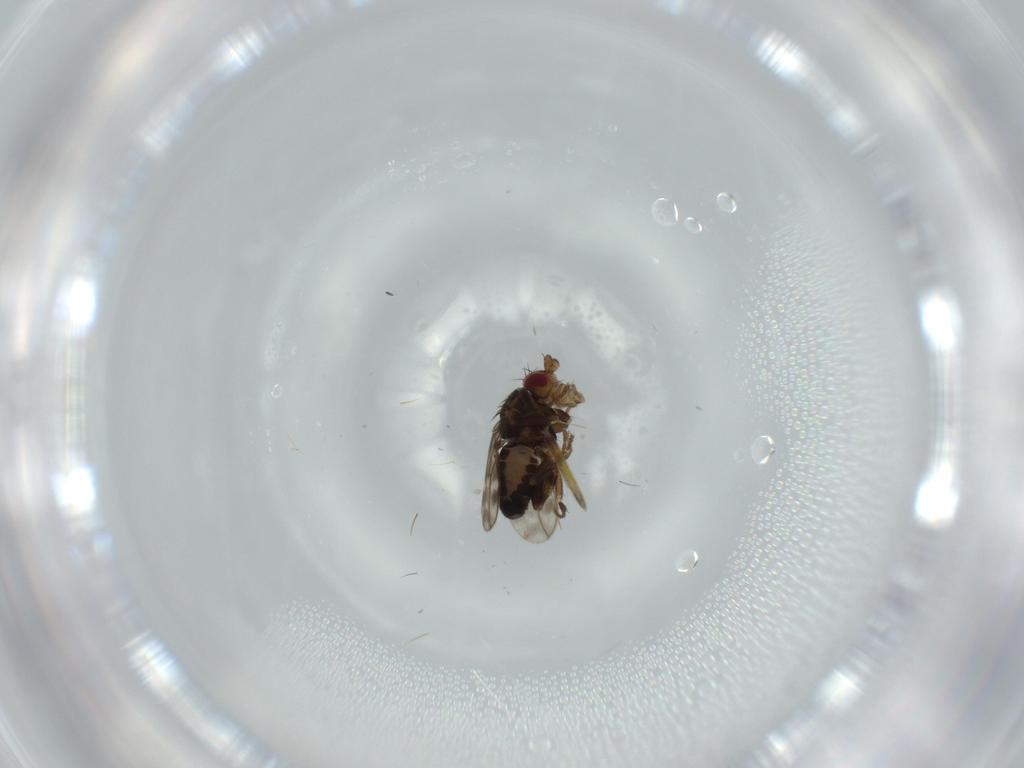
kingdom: Animalia
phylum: Arthropoda
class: Insecta
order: Diptera
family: Sphaeroceridae
